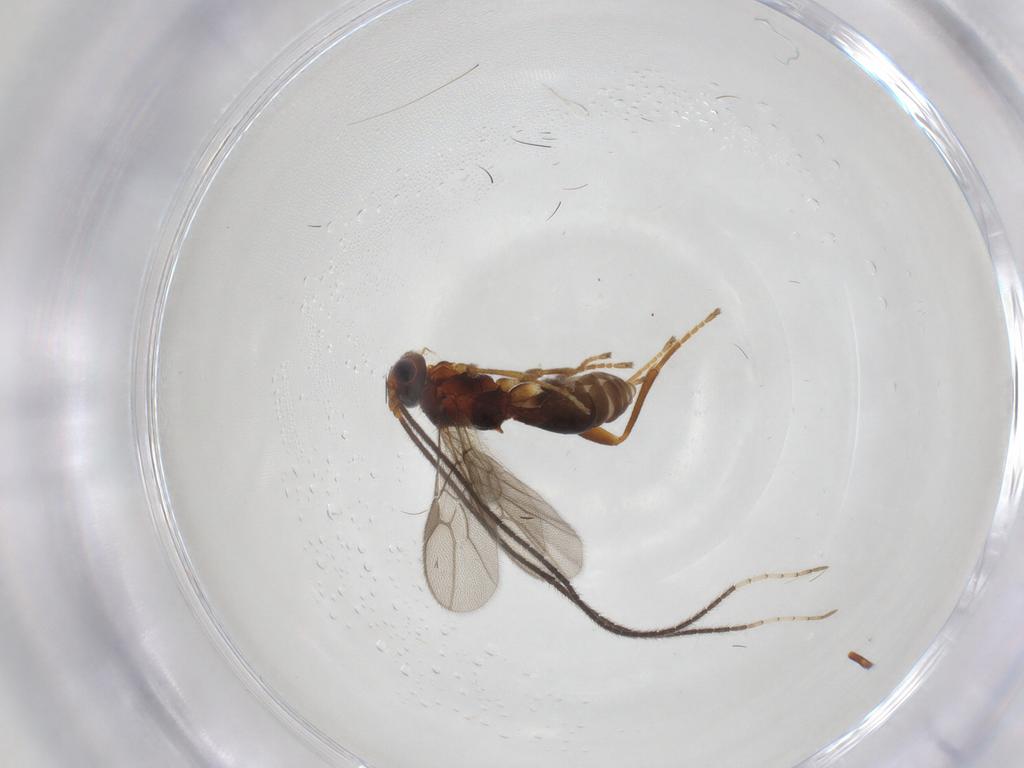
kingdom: Animalia
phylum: Arthropoda
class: Insecta
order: Hymenoptera
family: Braconidae
